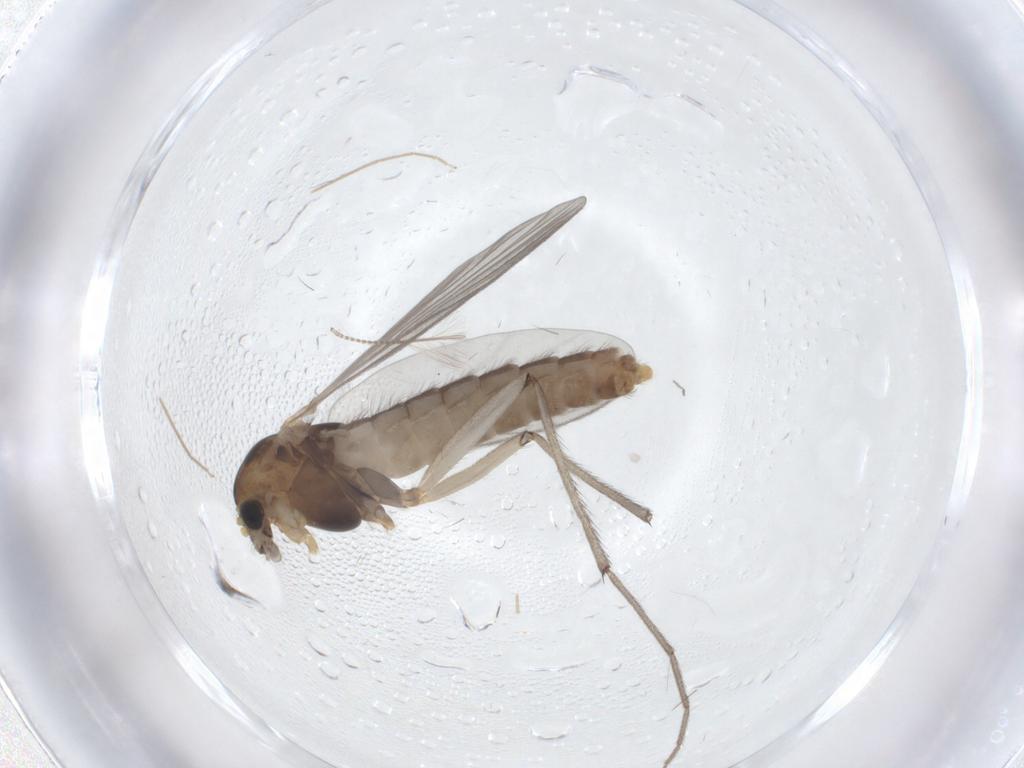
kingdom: Animalia
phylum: Arthropoda
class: Insecta
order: Diptera
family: Chironomidae
